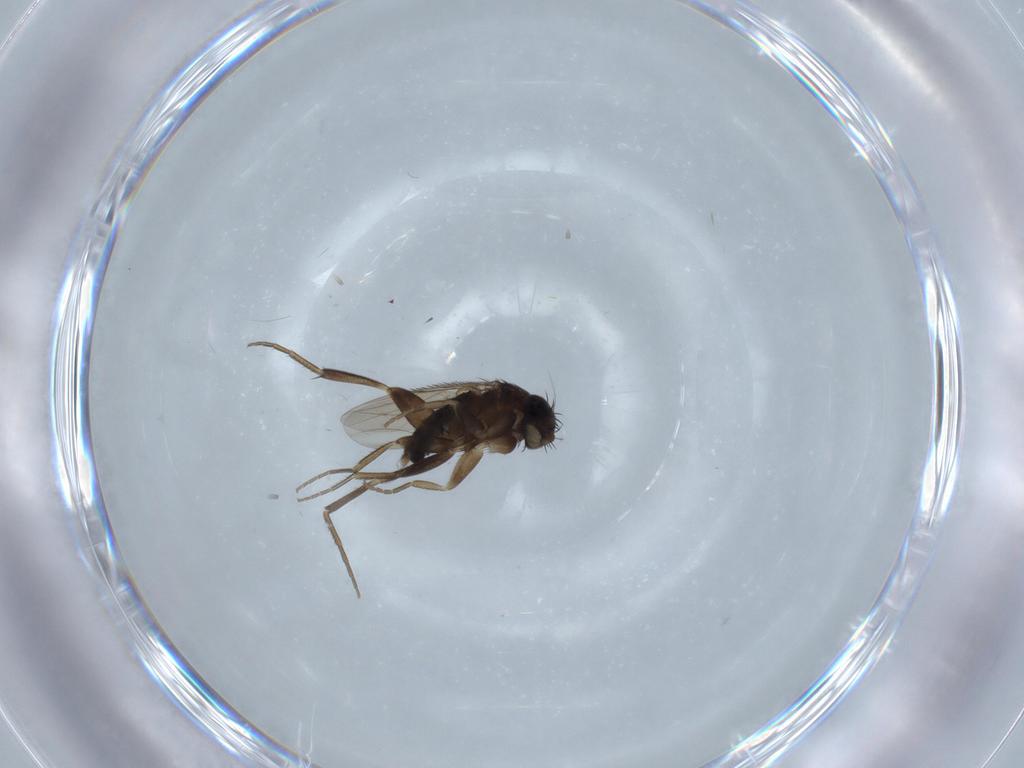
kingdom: Animalia
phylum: Arthropoda
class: Insecta
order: Diptera
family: Phoridae
